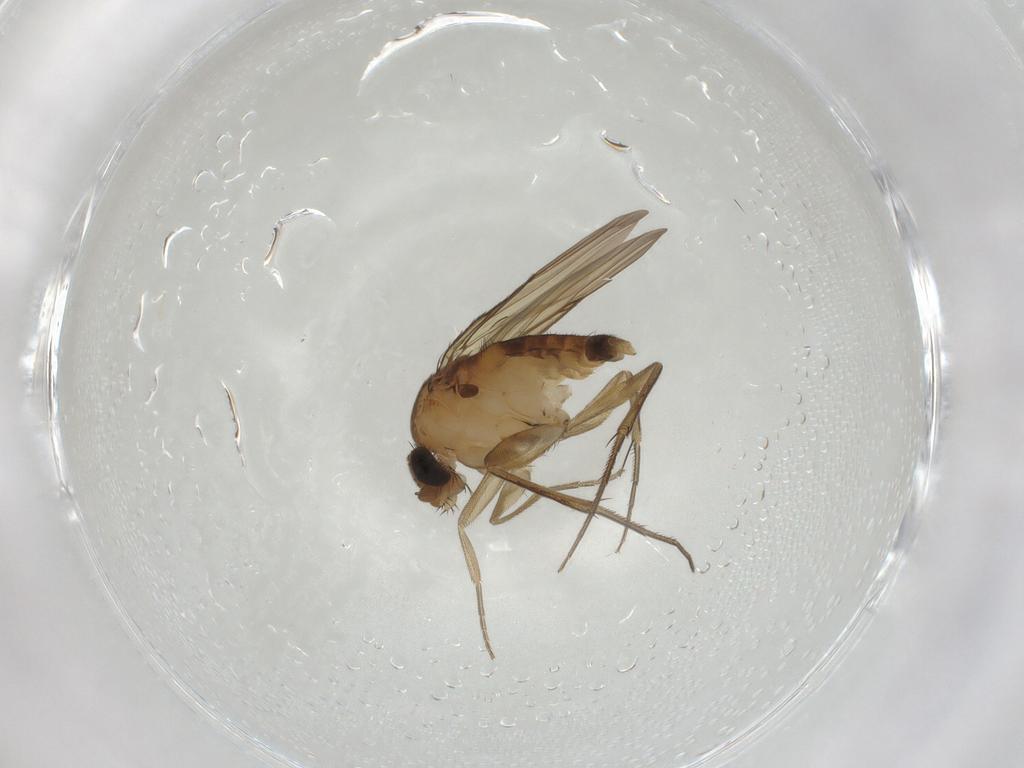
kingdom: Animalia
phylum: Arthropoda
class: Insecta
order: Diptera
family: Phoridae
